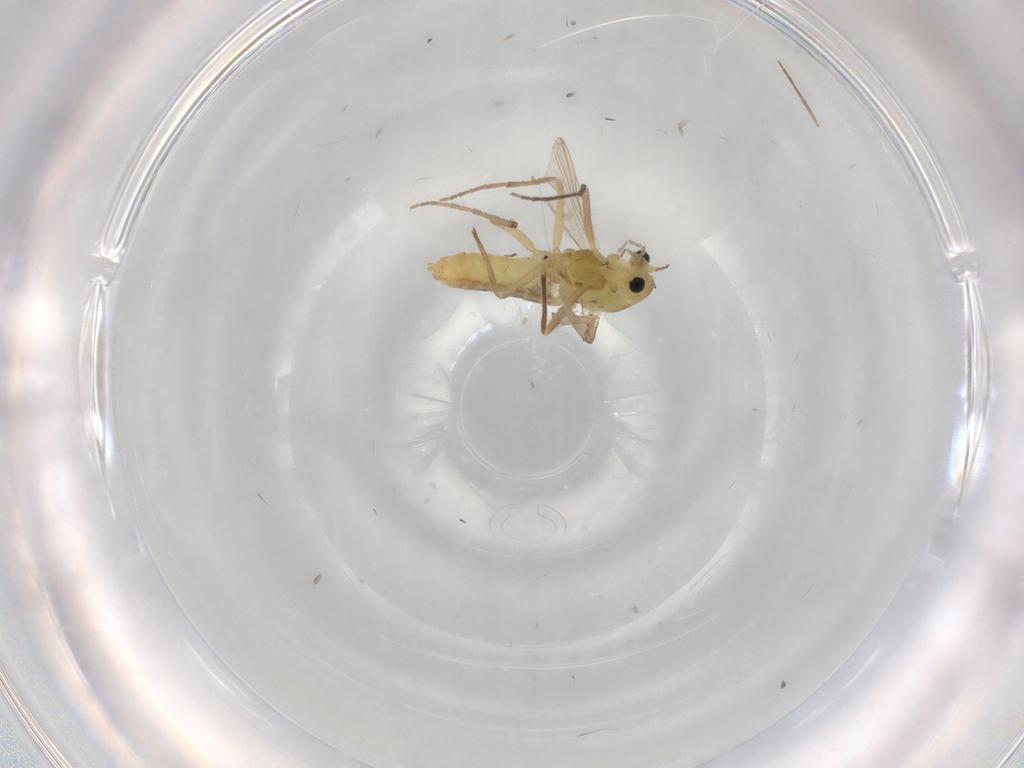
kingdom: Animalia
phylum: Arthropoda
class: Insecta
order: Diptera
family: Chironomidae
